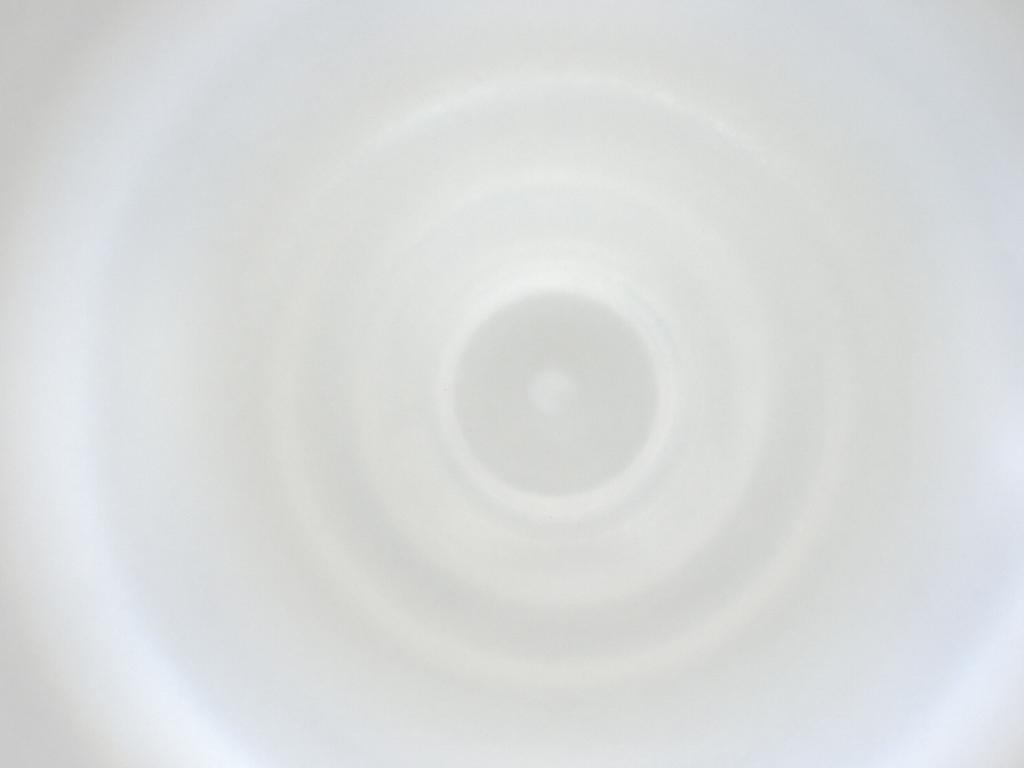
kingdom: Animalia
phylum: Arthropoda
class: Insecta
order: Diptera
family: Cecidomyiidae
